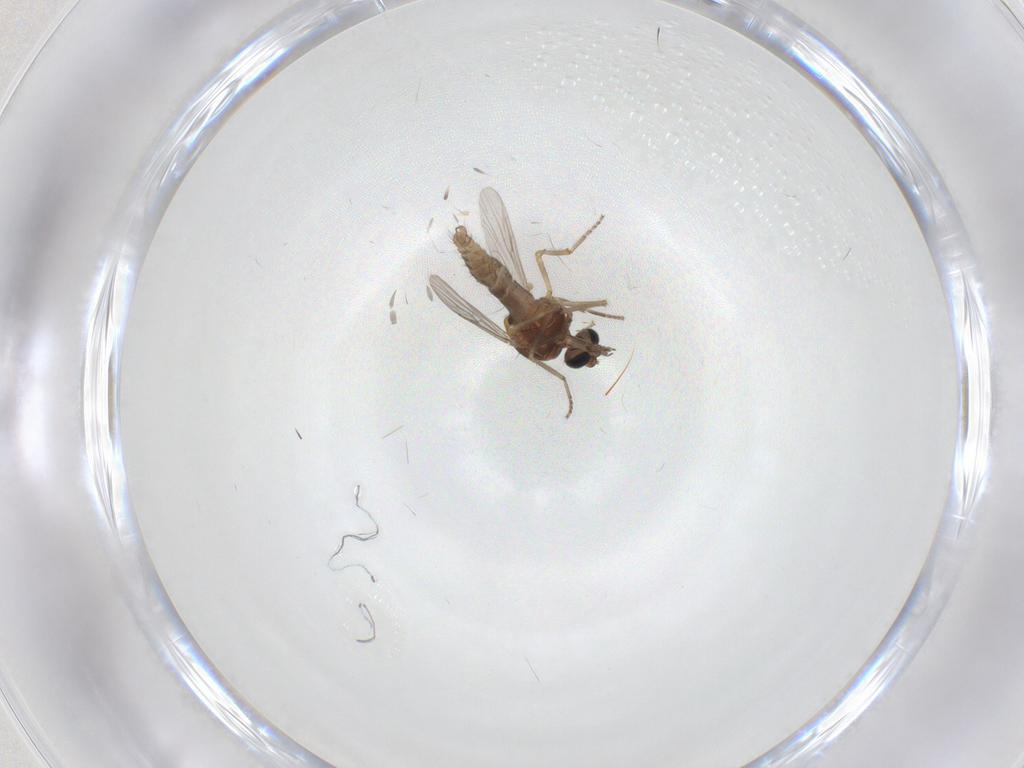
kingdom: Animalia
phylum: Arthropoda
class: Insecta
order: Diptera
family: Ceratopogonidae
